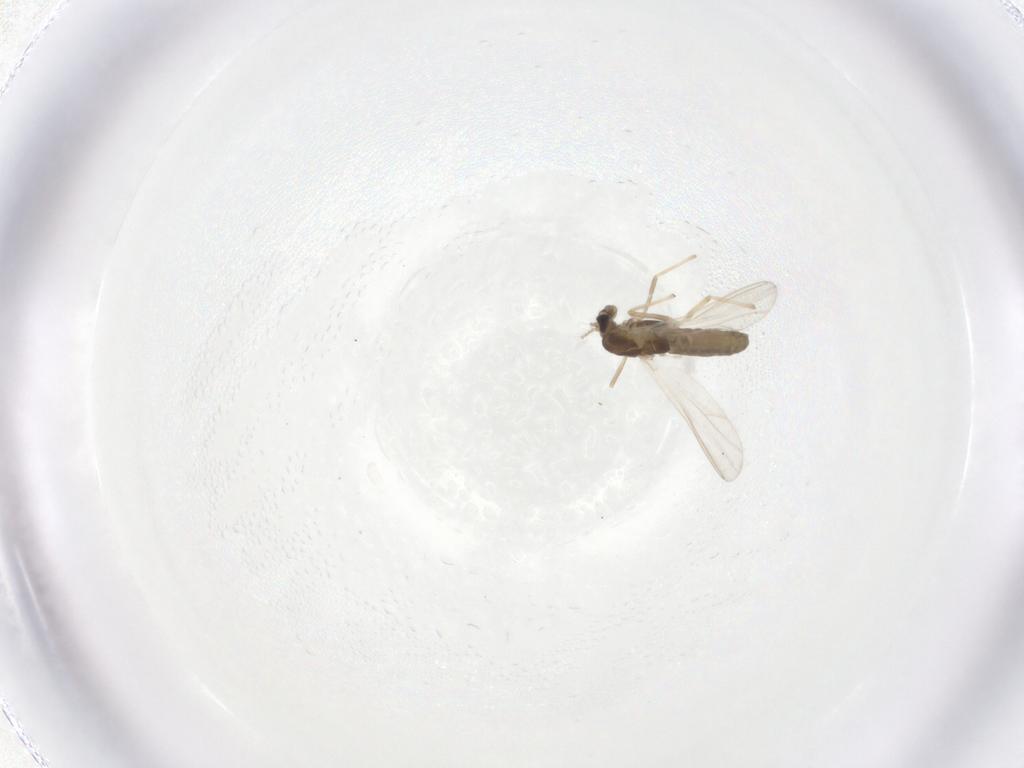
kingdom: Animalia
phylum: Arthropoda
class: Insecta
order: Diptera
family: Chironomidae
